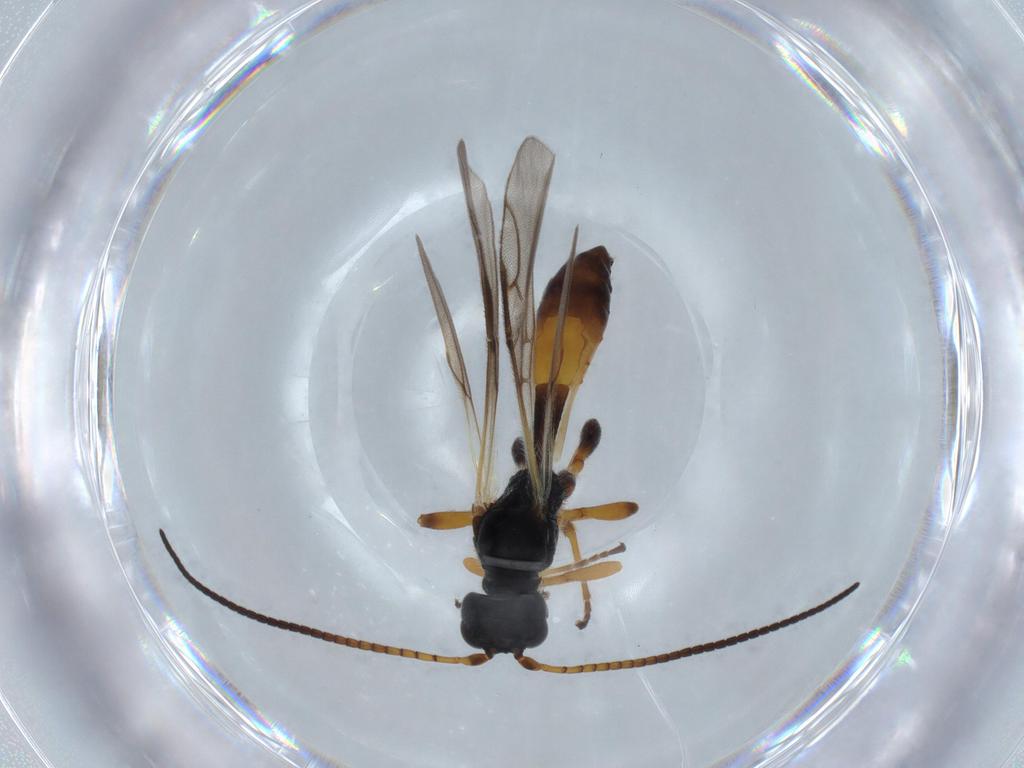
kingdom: Animalia
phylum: Arthropoda
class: Insecta
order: Hymenoptera
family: Braconidae
